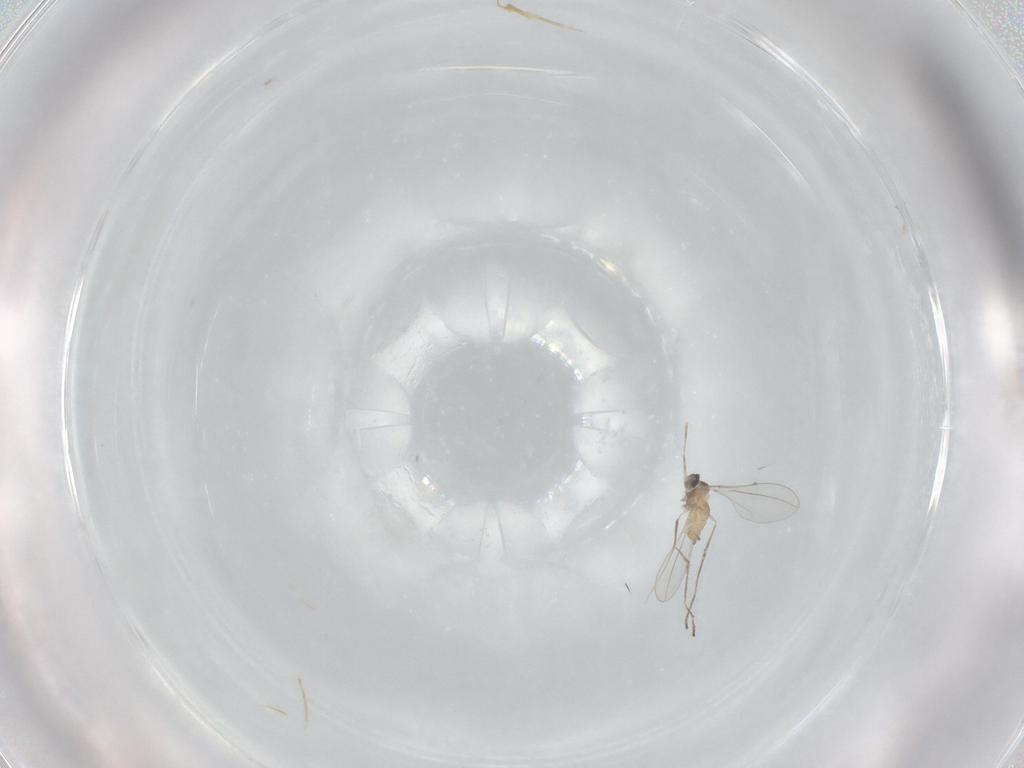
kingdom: Animalia
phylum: Arthropoda
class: Insecta
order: Diptera
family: Cecidomyiidae
